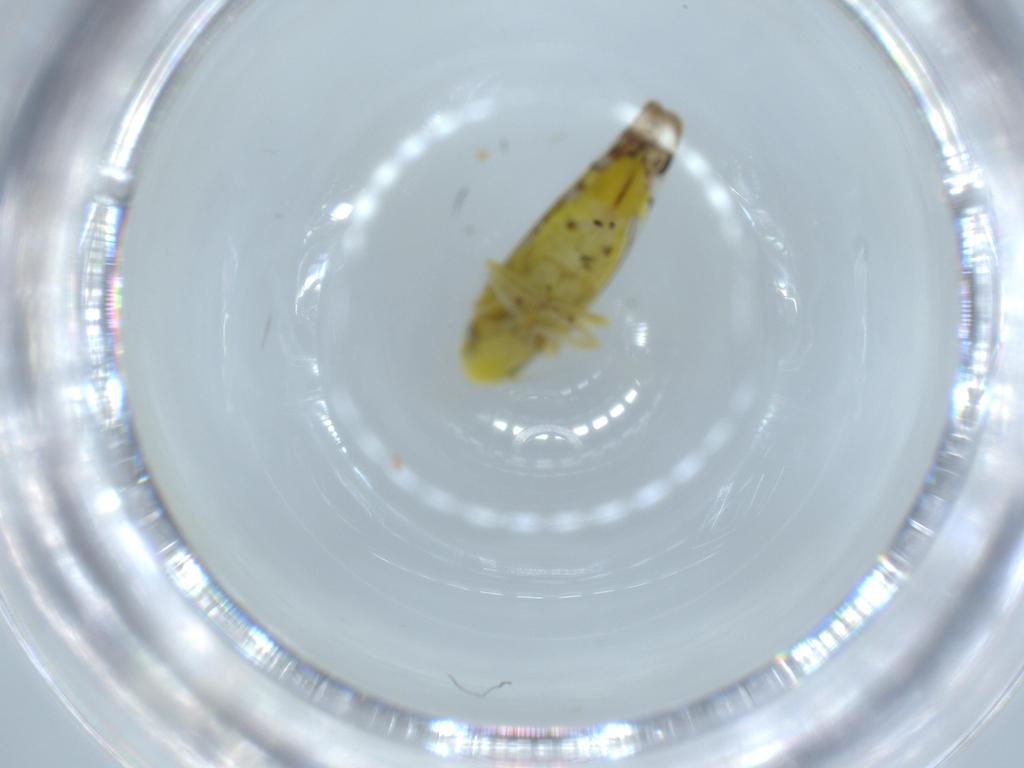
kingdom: Animalia
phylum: Arthropoda
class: Insecta
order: Hemiptera
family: Cicadellidae
